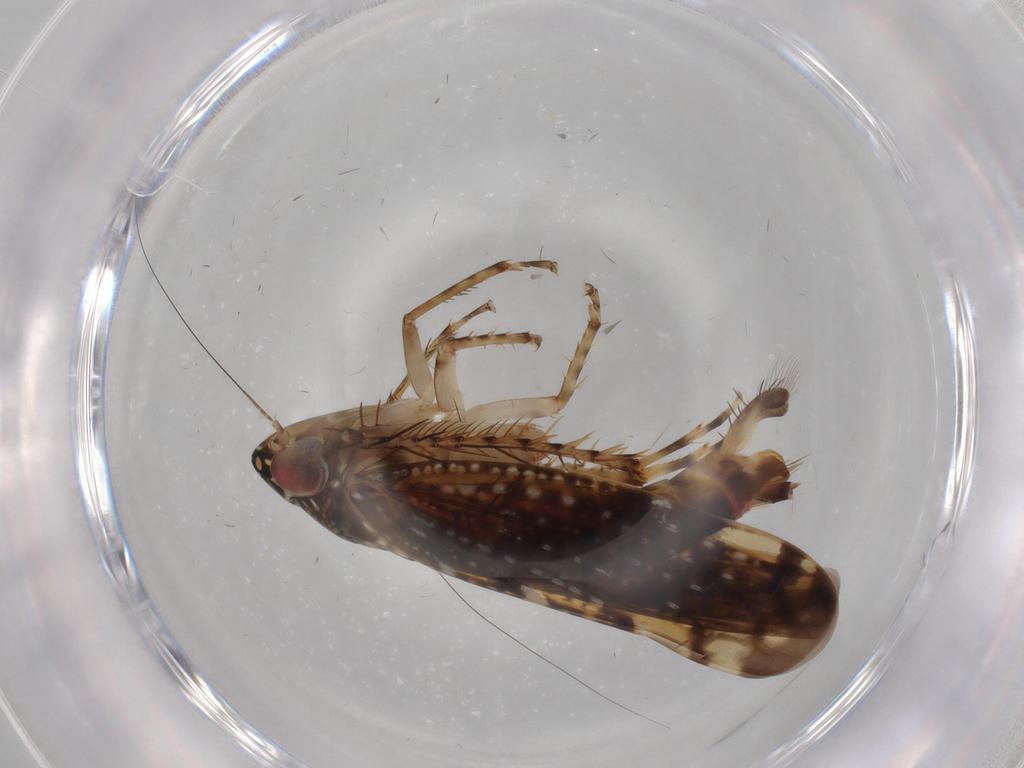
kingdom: Animalia
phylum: Arthropoda
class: Insecta
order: Hemiptera
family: Cicadellidae
